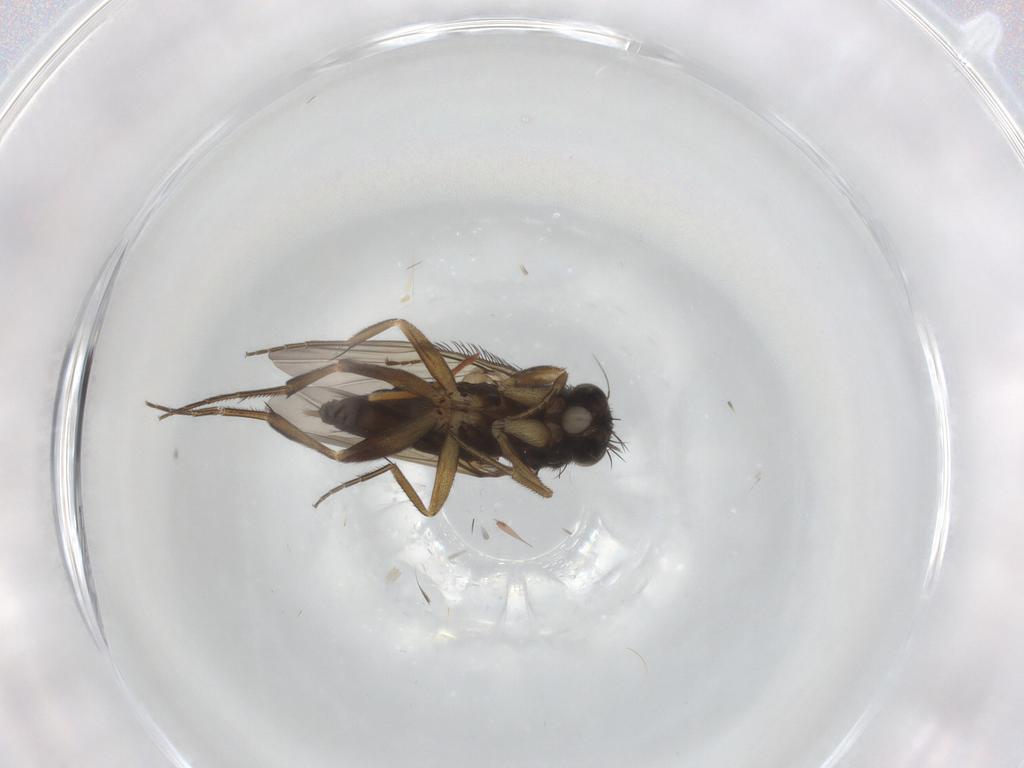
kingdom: Animalia
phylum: Arthropoda
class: Insecta
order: Diptera
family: Phoridae
